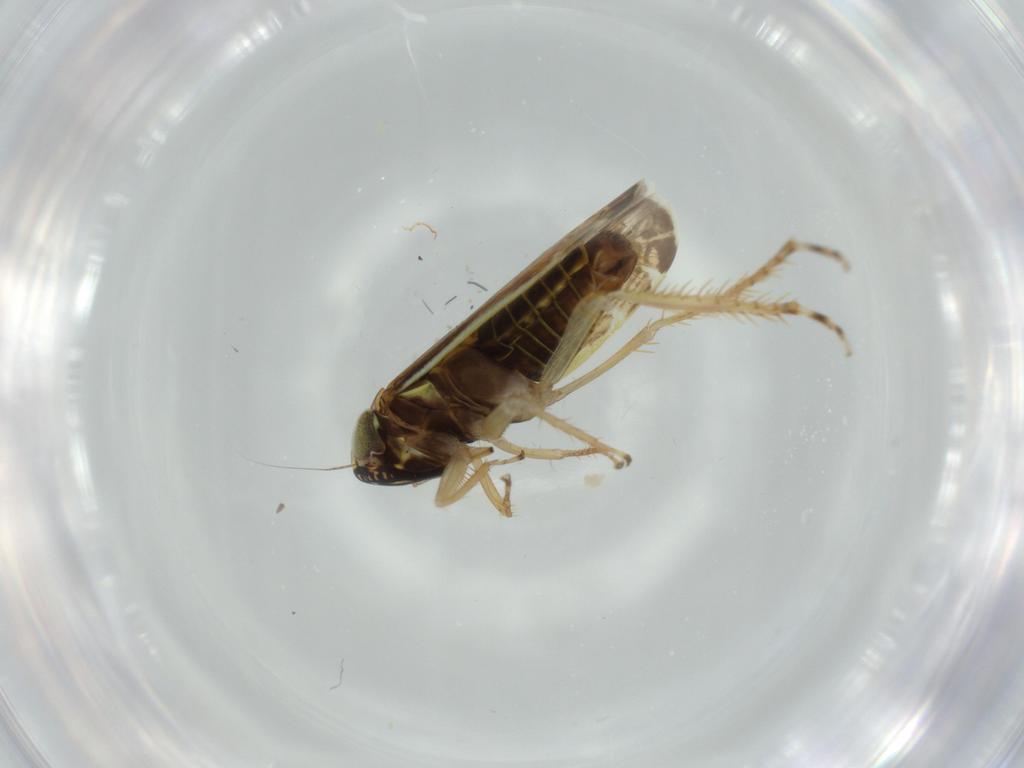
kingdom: Animalia
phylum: Arthropoda
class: Insecta
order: Hemiptera
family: Cicadellidae
